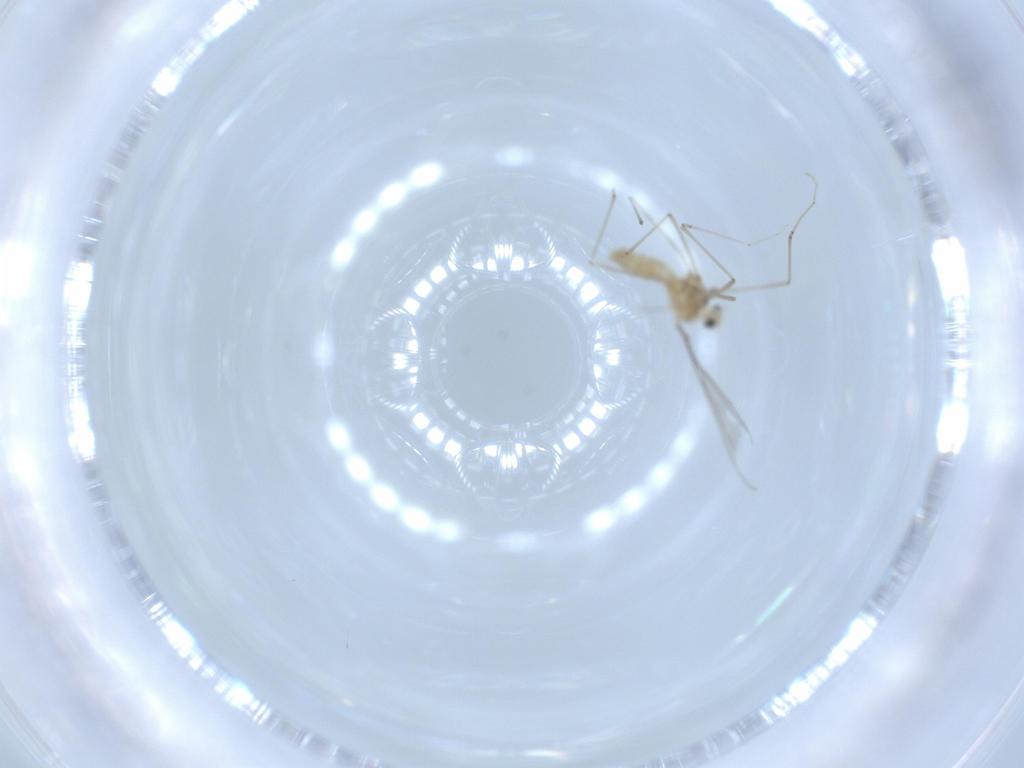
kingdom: Animalia
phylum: Arthropoda
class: Insecta
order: Diptera
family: Cecidomyiidae
